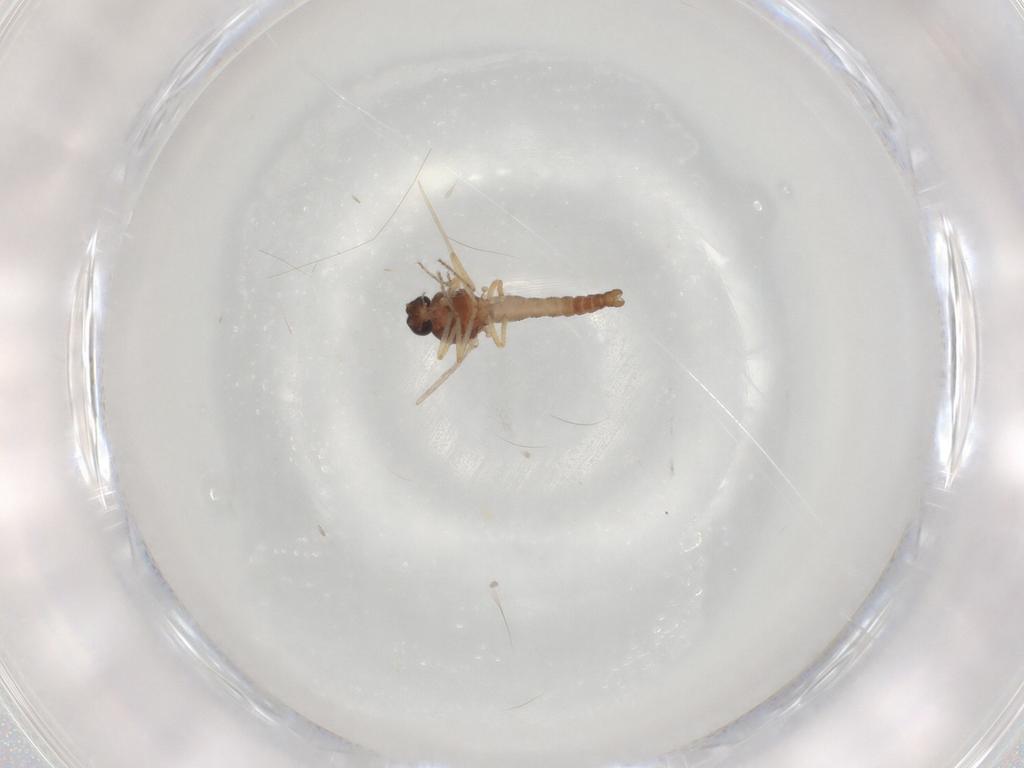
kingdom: Animalia
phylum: Arthropoda
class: Insecta
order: Diptera
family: Ceratopogonidae
